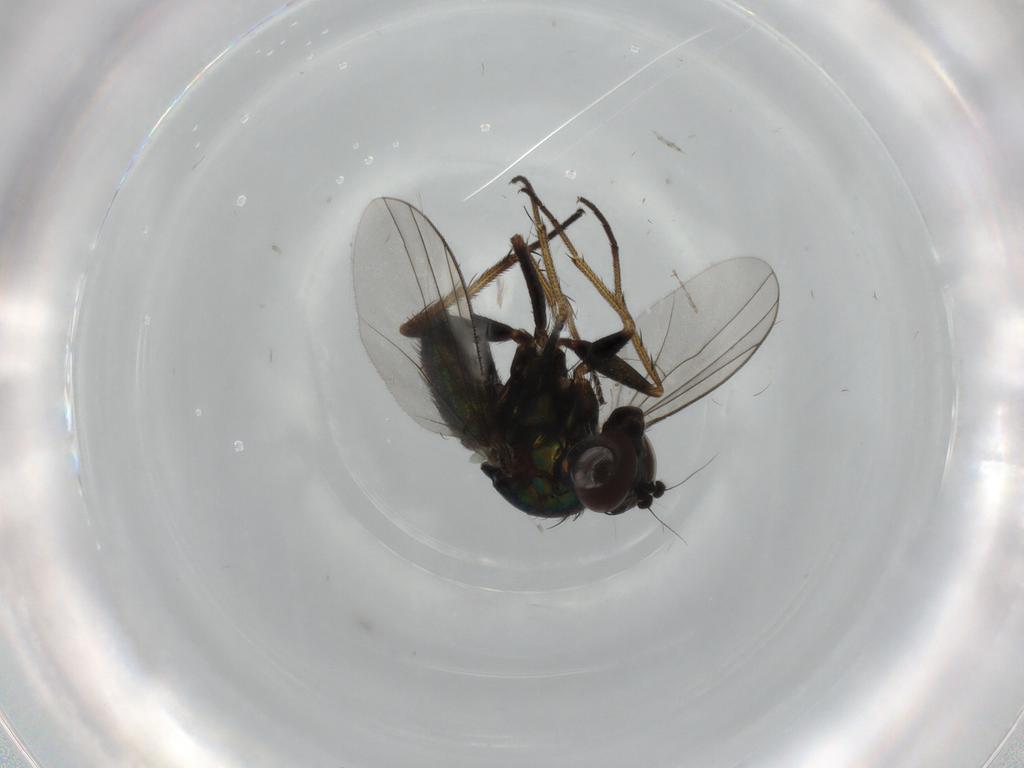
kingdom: Animalia
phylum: Arthropoda
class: Insecta
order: Diptera
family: Dolichopodidae
